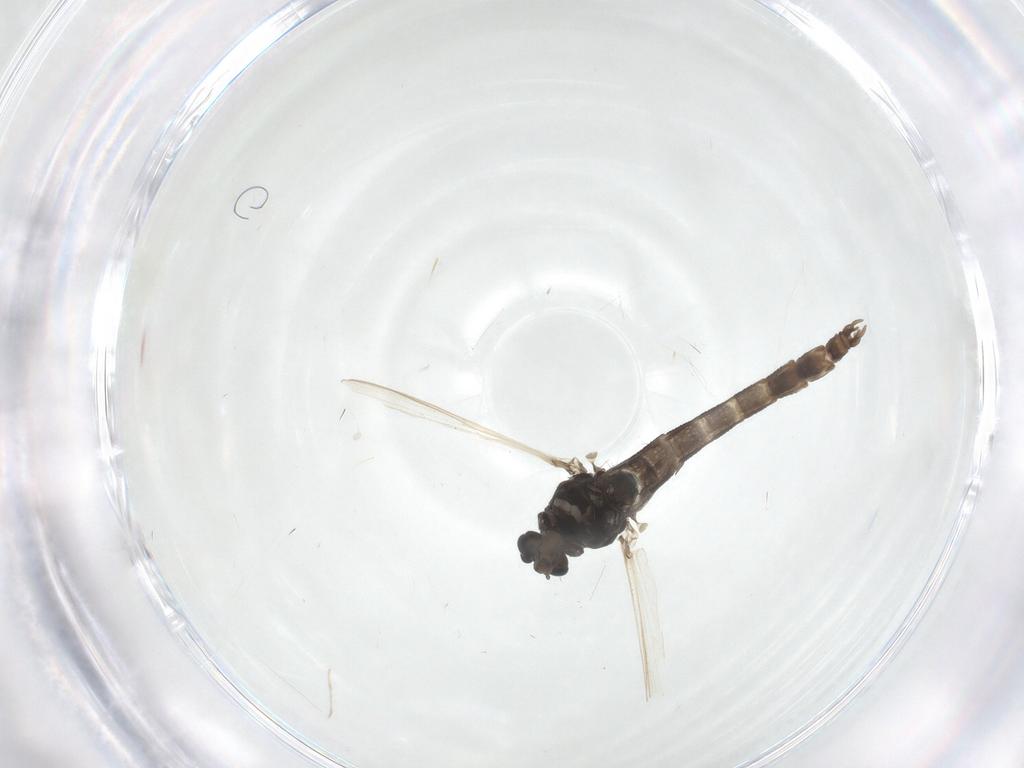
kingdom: Animalia
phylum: Arthropoda
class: Insecta
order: Diptera
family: Chironomidae
